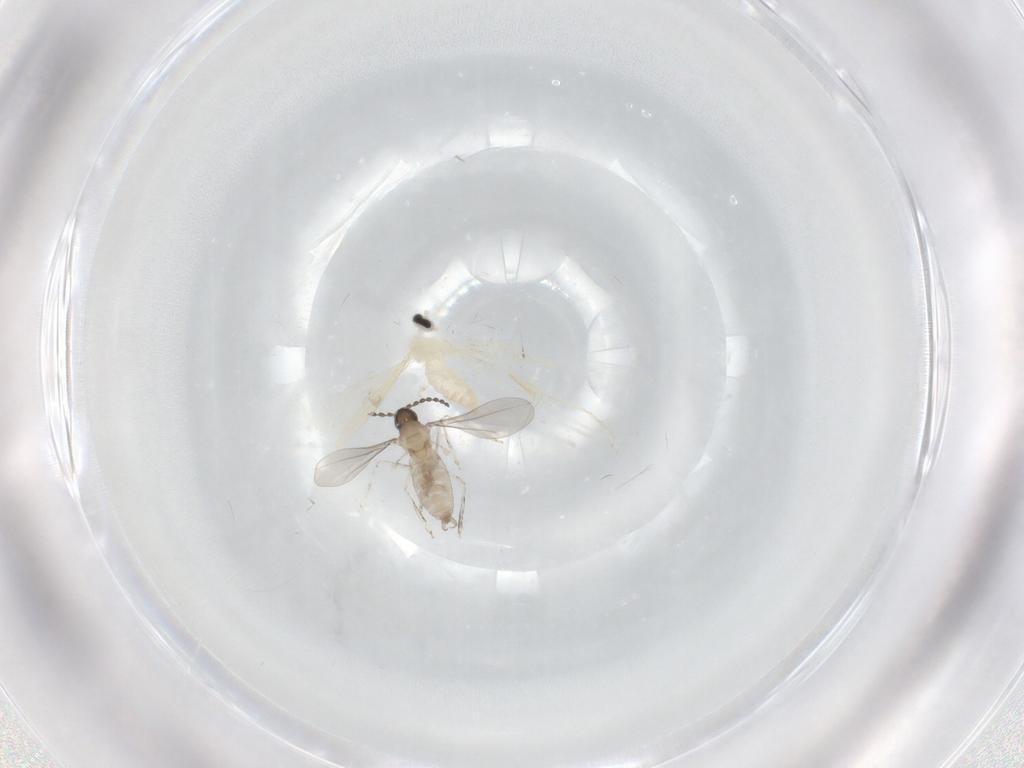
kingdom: Animalia
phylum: Arthropoda
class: Insecta
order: Diptera
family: Cecidomyiidae
